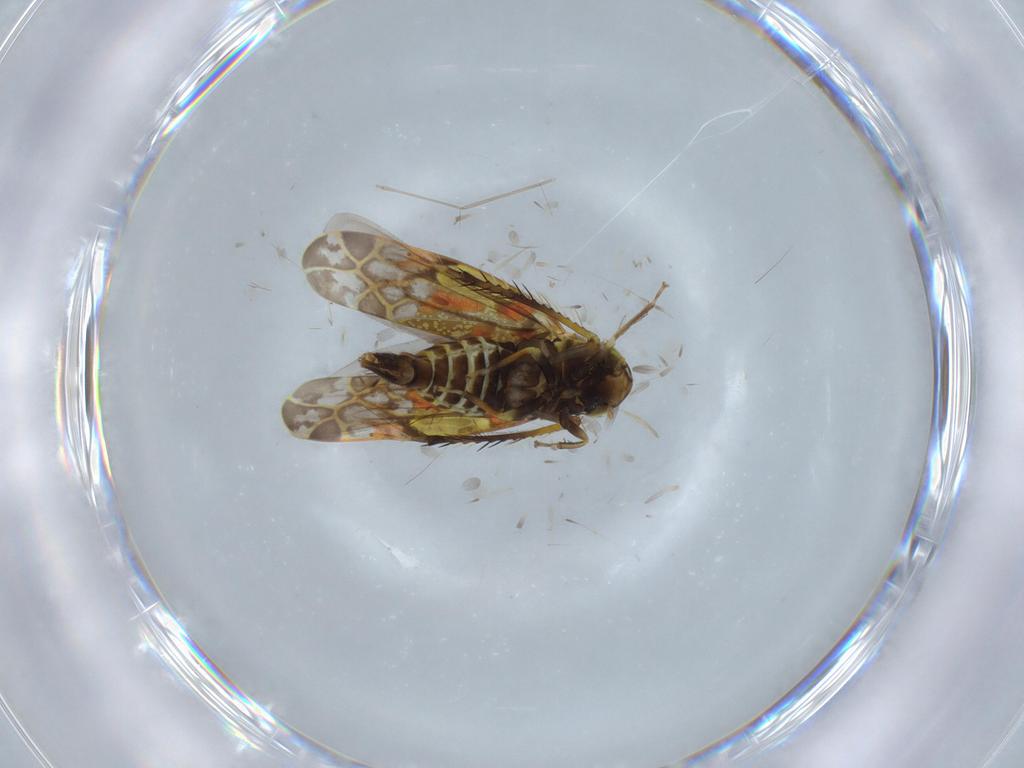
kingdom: Animalia
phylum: Arthropoda
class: Insecta
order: Hemiptera
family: Cicadellidae
